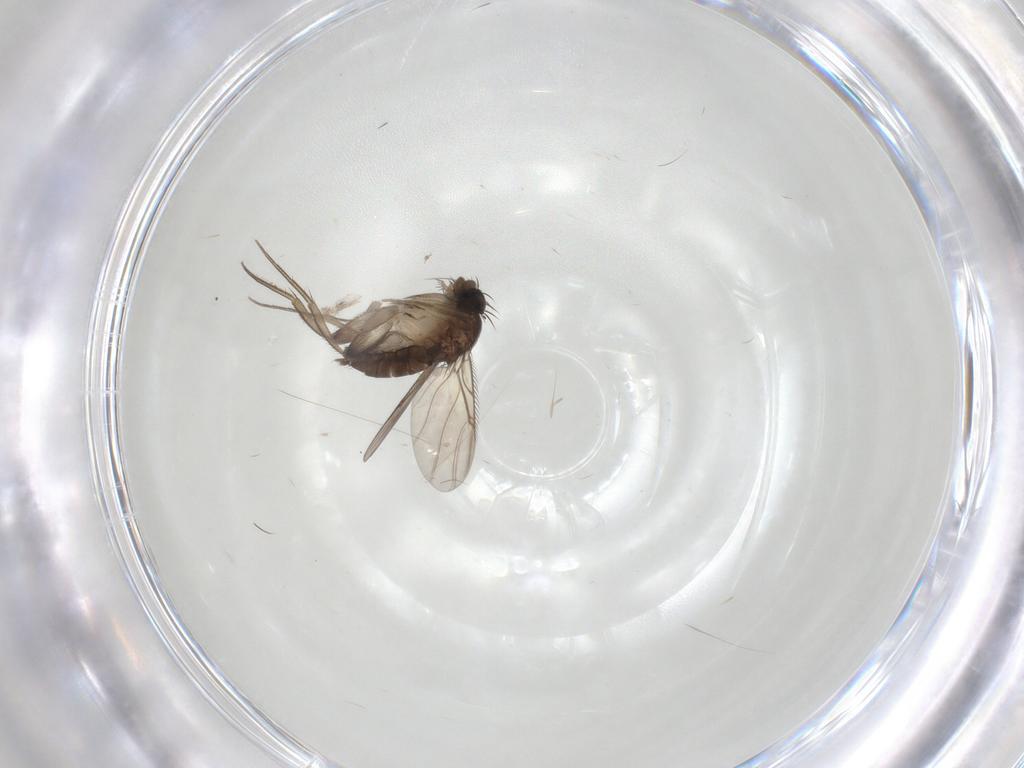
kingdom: Animalia
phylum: Arthropoda
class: Insecta
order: Diptera
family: Phoridae
